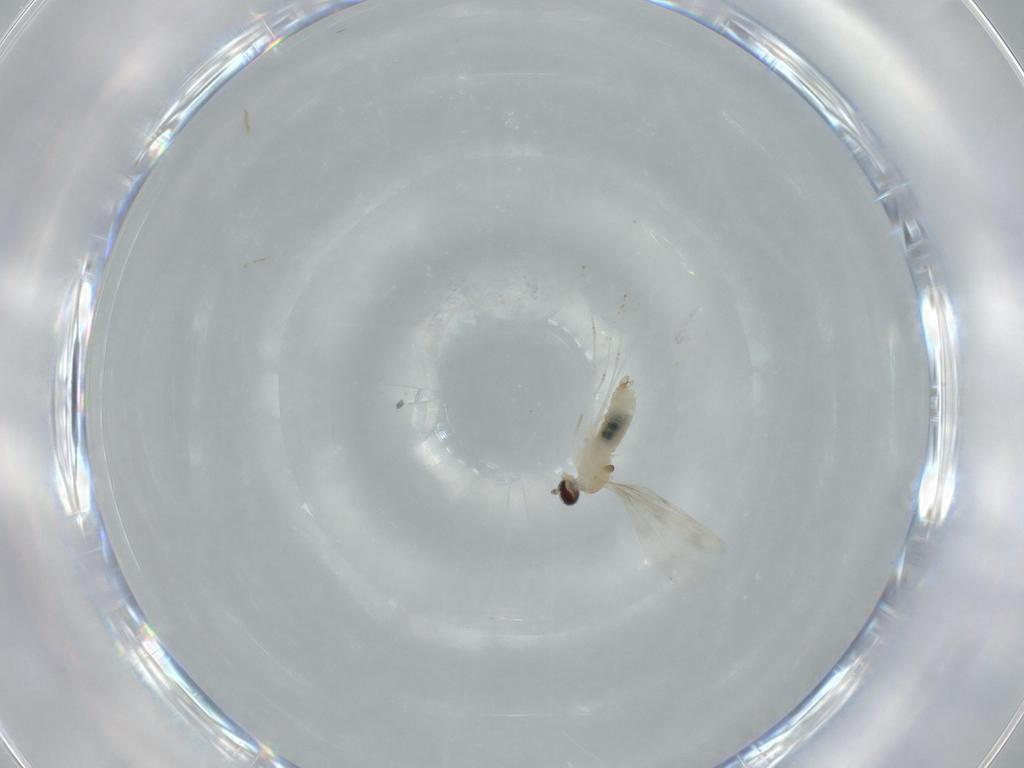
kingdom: Animalia
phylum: Arthropoda
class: Insecta
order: Diptera
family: Cecidomyiidae
